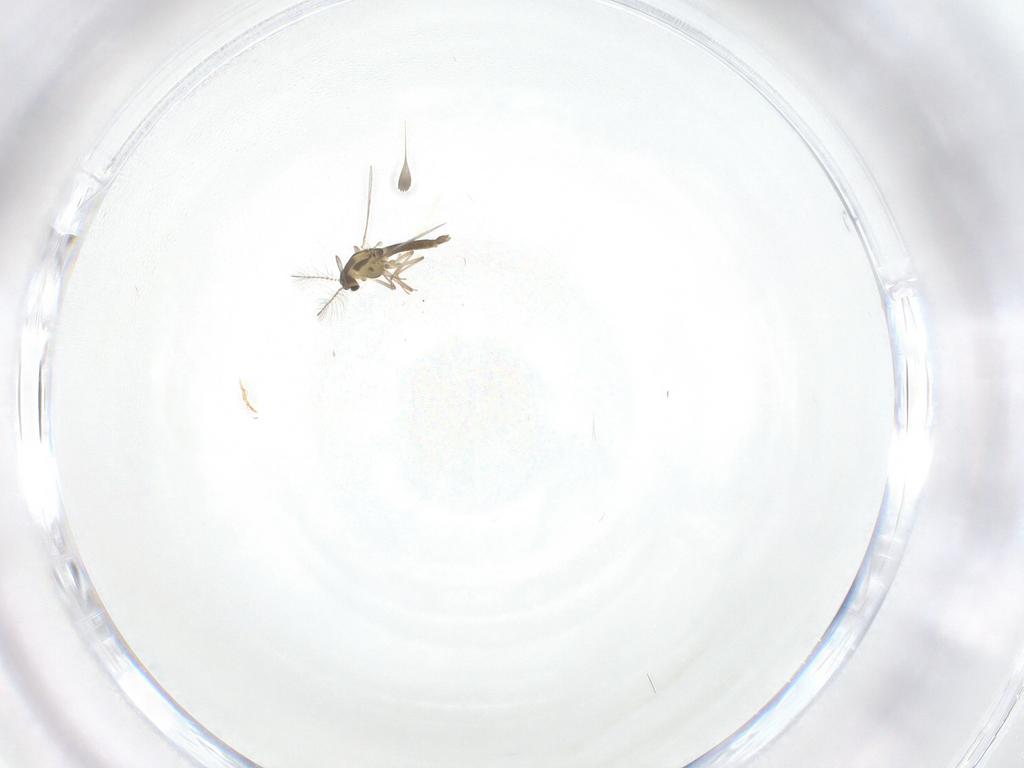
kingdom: Animalia
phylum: Arthropoda
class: Insecta
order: Diptera
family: Chironomidae
